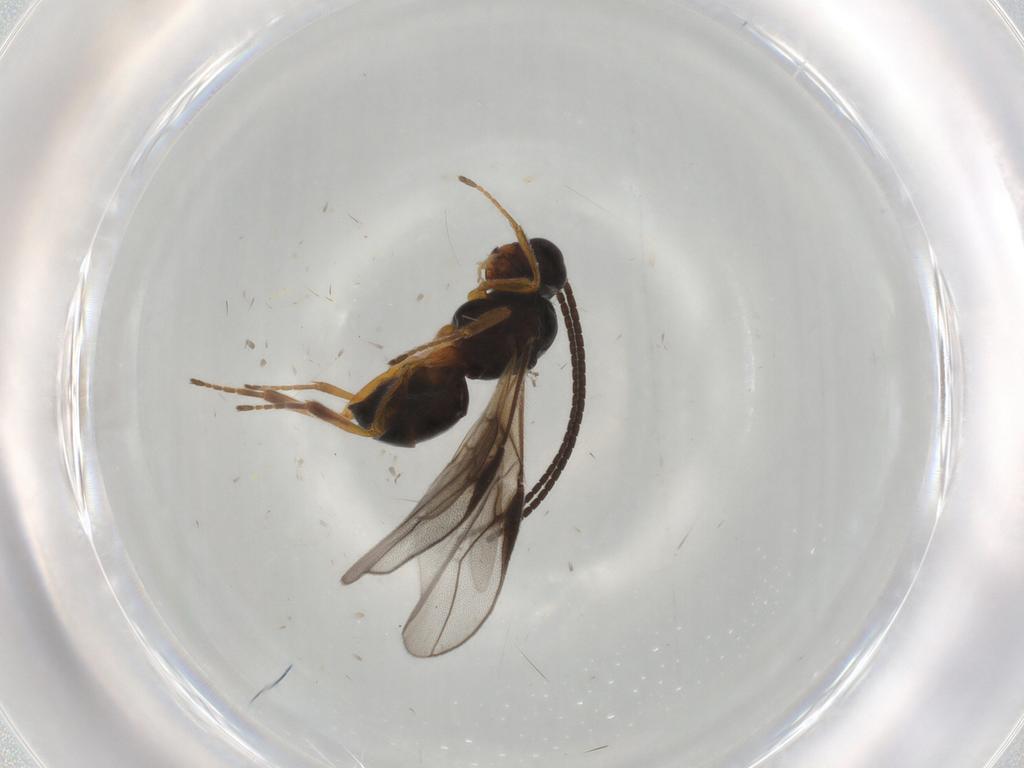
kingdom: Animalia
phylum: Arthropoda
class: Insecta
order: Hymenoptera
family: Braconidae
